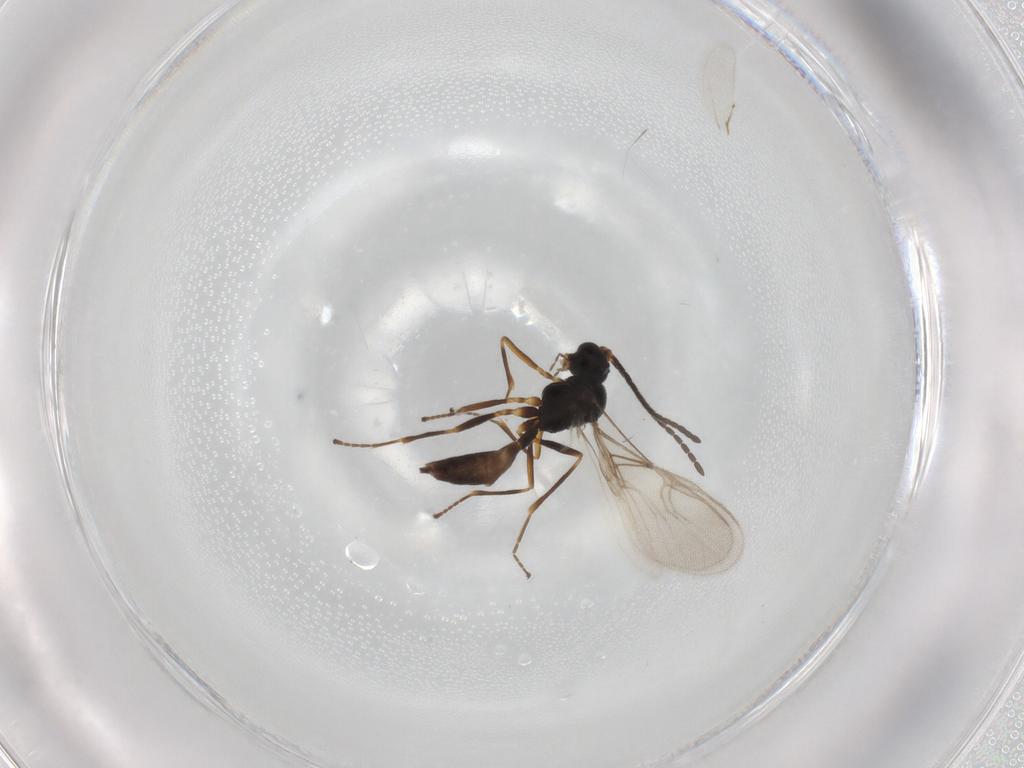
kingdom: Animalia
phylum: Arthropoda
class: Insecta
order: Hymenoptera
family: Braconidae
